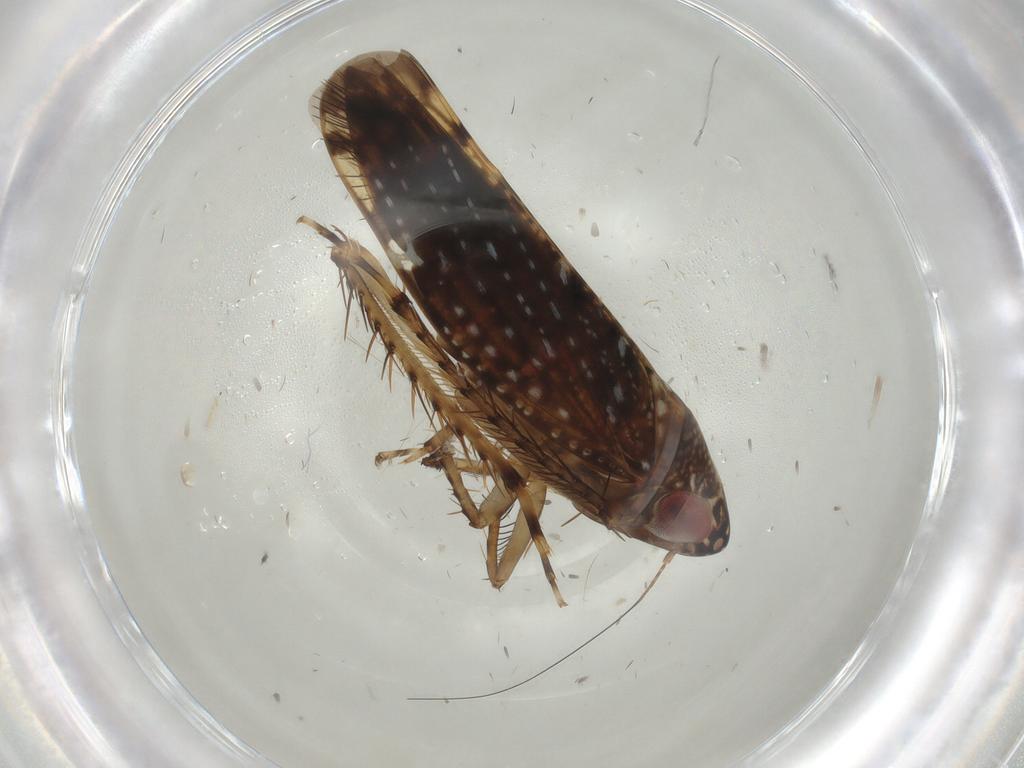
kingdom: Animalia
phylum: Arthropoda
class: Insecta
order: Hemiptera
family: Cicadellidae
